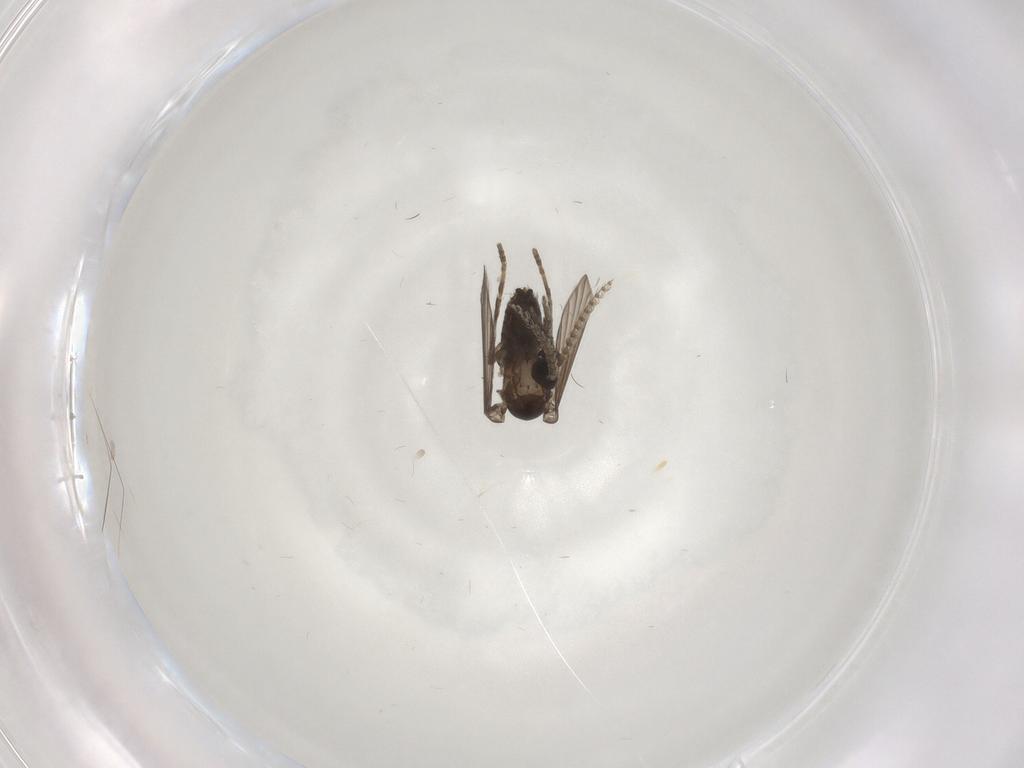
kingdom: Animalia
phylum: Arthropoda
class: Insecta
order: Diptera
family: Psychodidae
